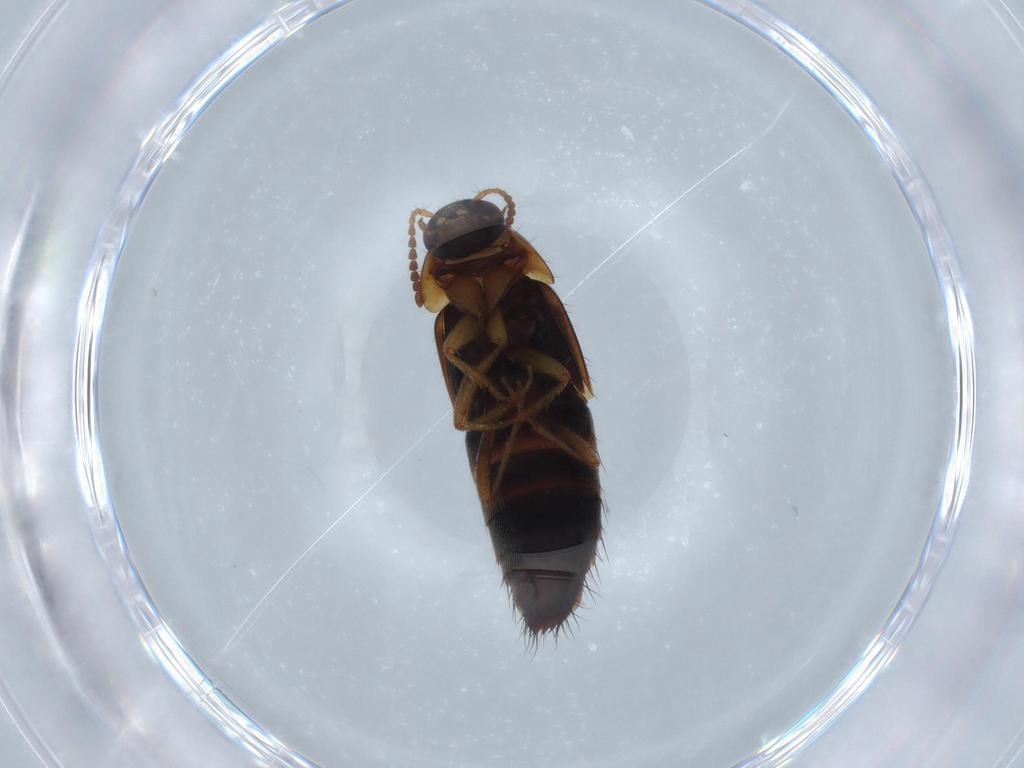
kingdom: Animalia
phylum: Arthropoda
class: Insecta
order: Coleoptera
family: Staphylinidae
